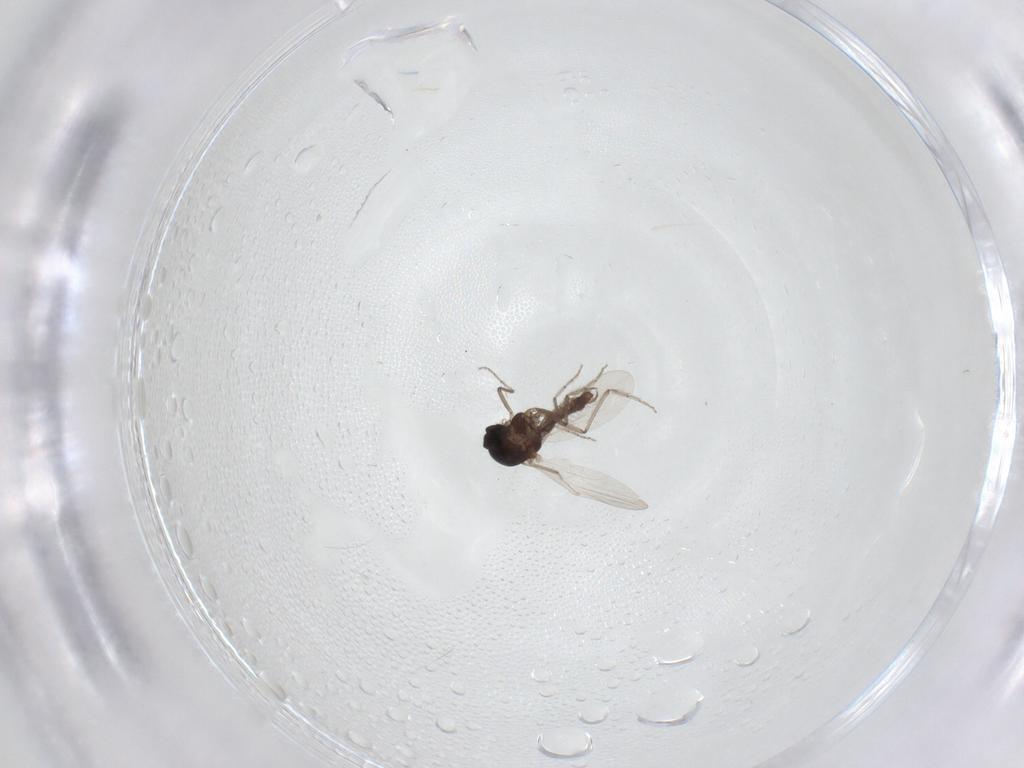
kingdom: Animalia
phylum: Arthropoda
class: Insecta
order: Diptera
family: Ceratopogonidae
